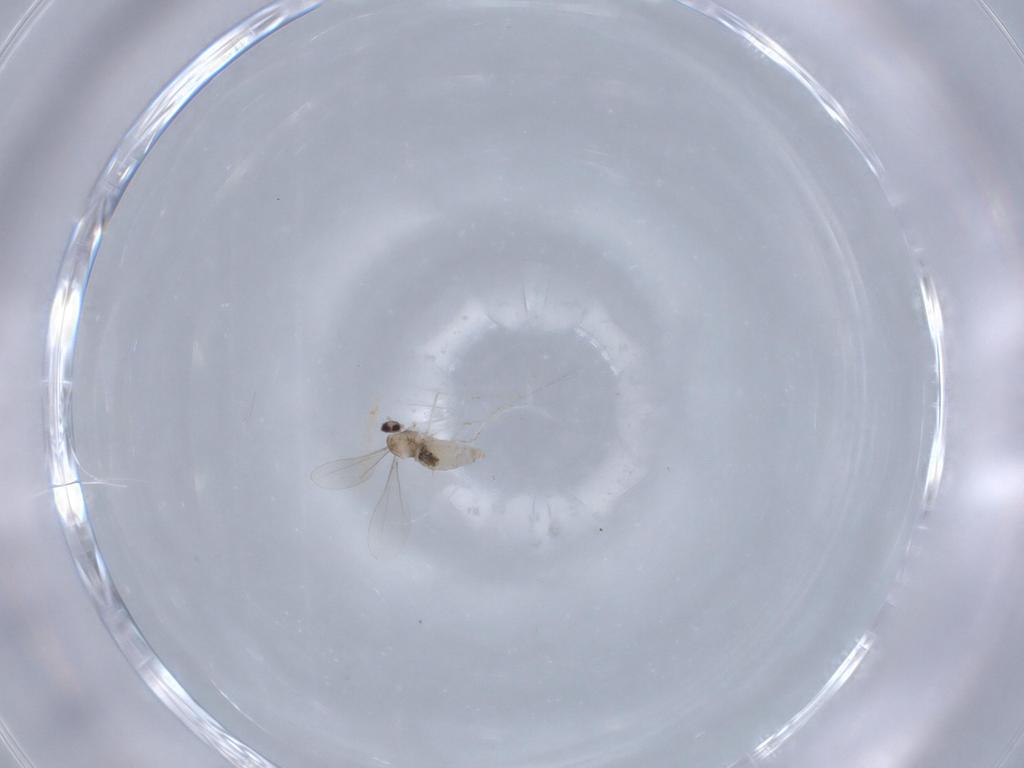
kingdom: Animalia
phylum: Arthropoda
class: Insecta
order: Diptera
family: Cecidomyiidae
